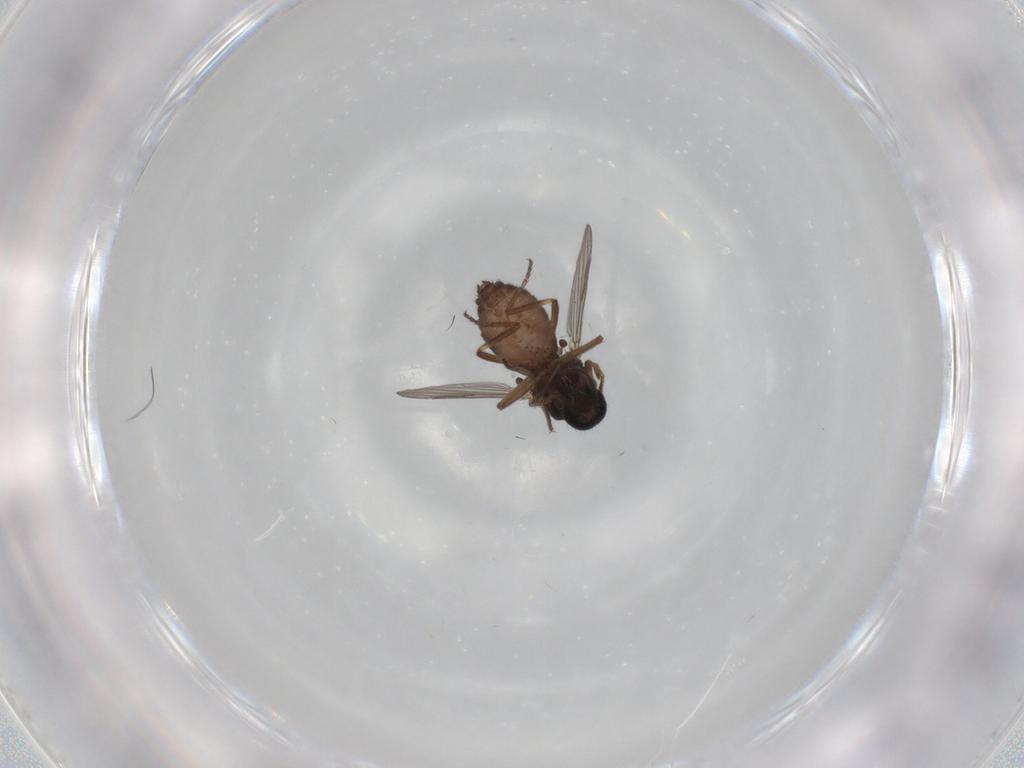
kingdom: Animalia
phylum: Arthropoda
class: Insecta
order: Diptera
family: Ceratopogonidae
